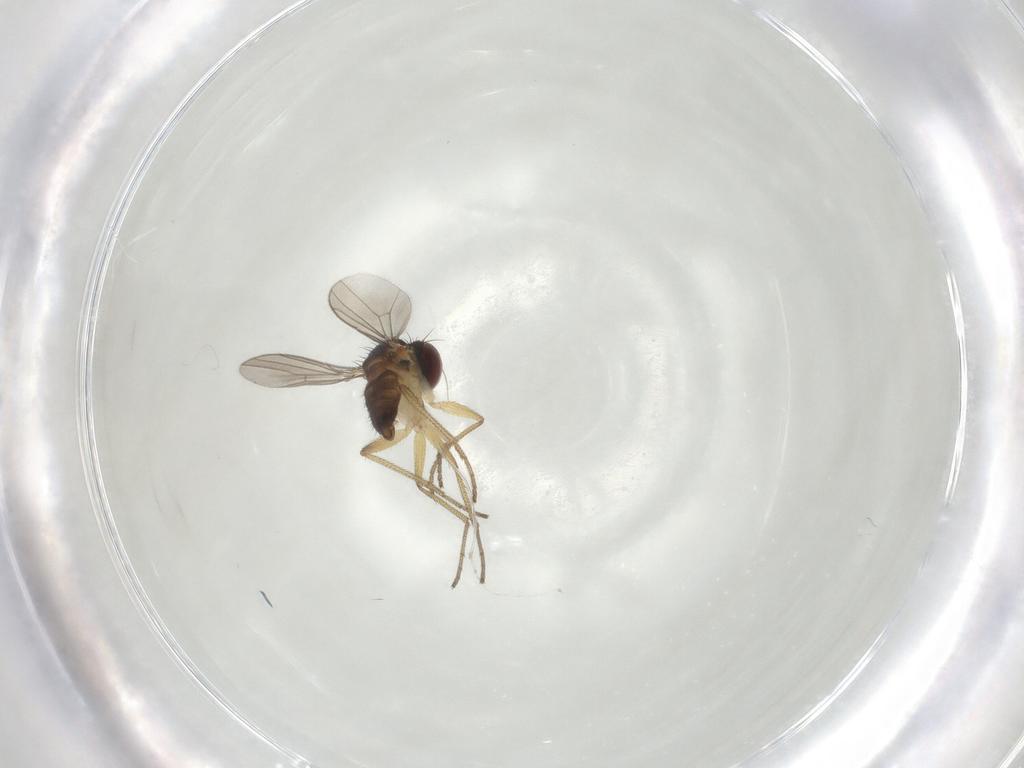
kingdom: Animalia
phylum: Arthropoda
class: Insecta
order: Diptera
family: Dolichopodidae
